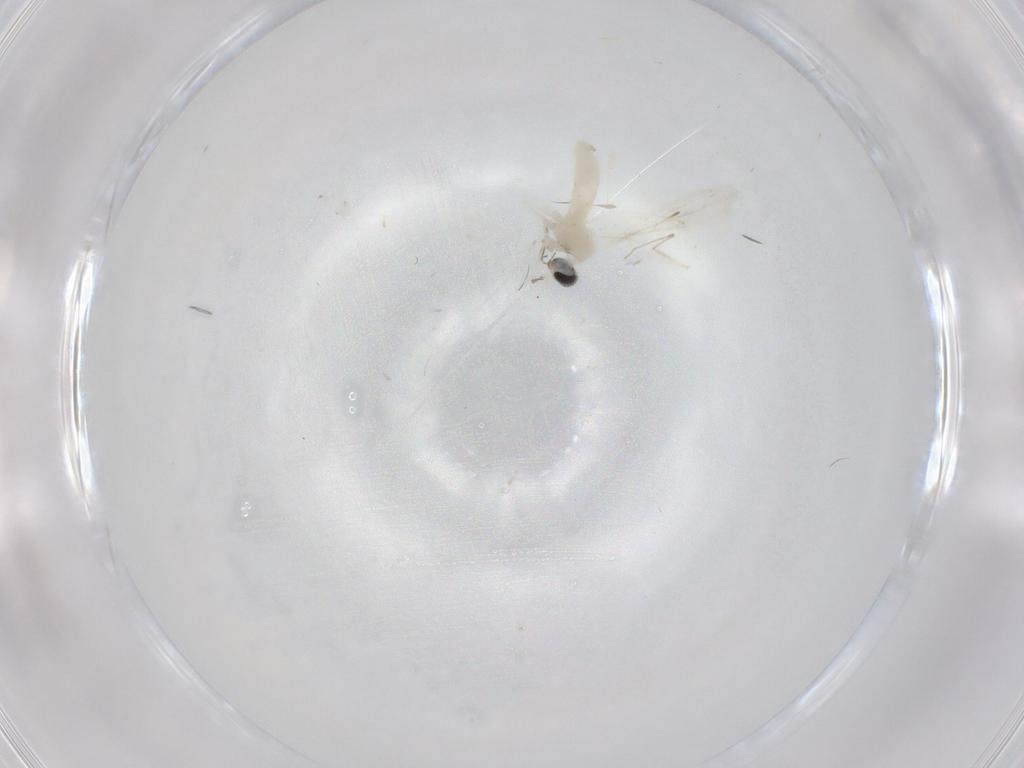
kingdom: Animalia
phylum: Arthropoda
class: Insecta
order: Diptera
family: Cecidomyiidae
